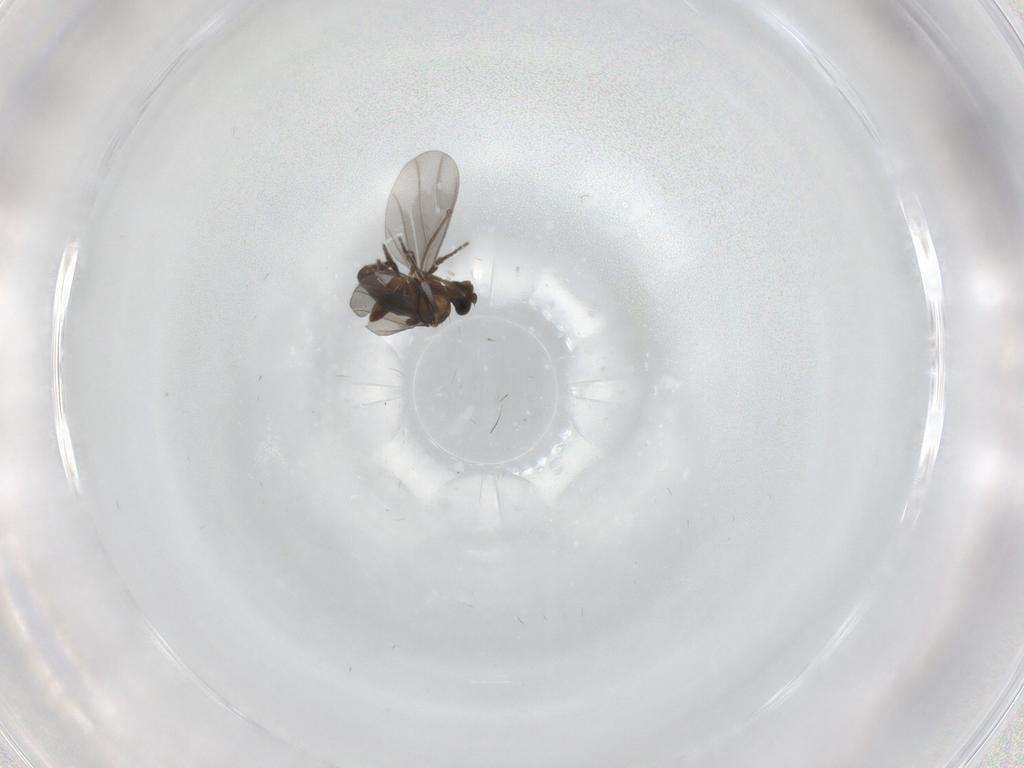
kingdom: Animalia
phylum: Arthropoda
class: Insecta
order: Diptera
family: Phoridae
